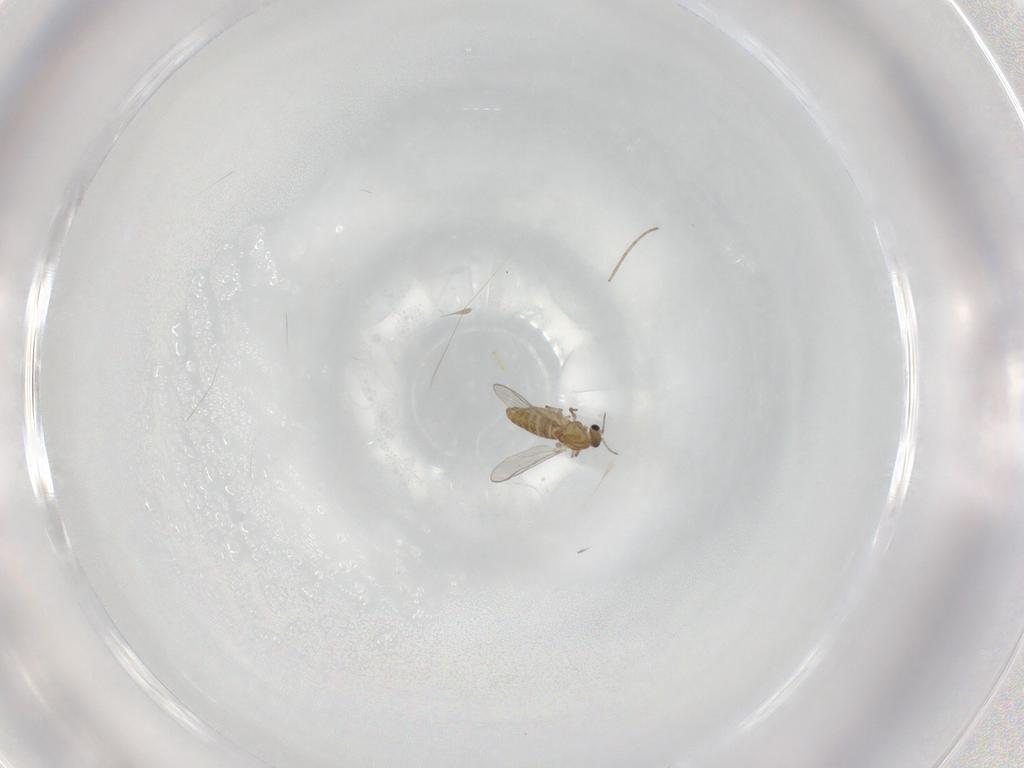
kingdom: Animalia
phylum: Arthropoda
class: Insecta
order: Diptera
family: Chironomidae
